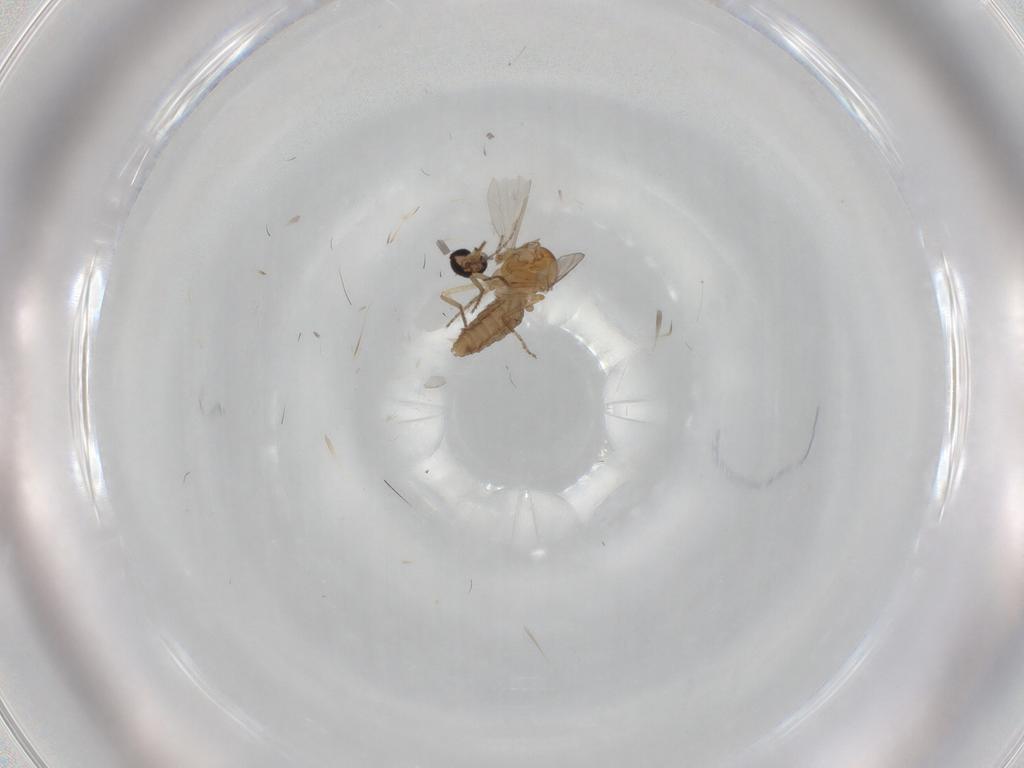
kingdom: Animalia
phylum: Arthropoda
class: Insecta
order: Diptera
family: Ceratopogonidae
